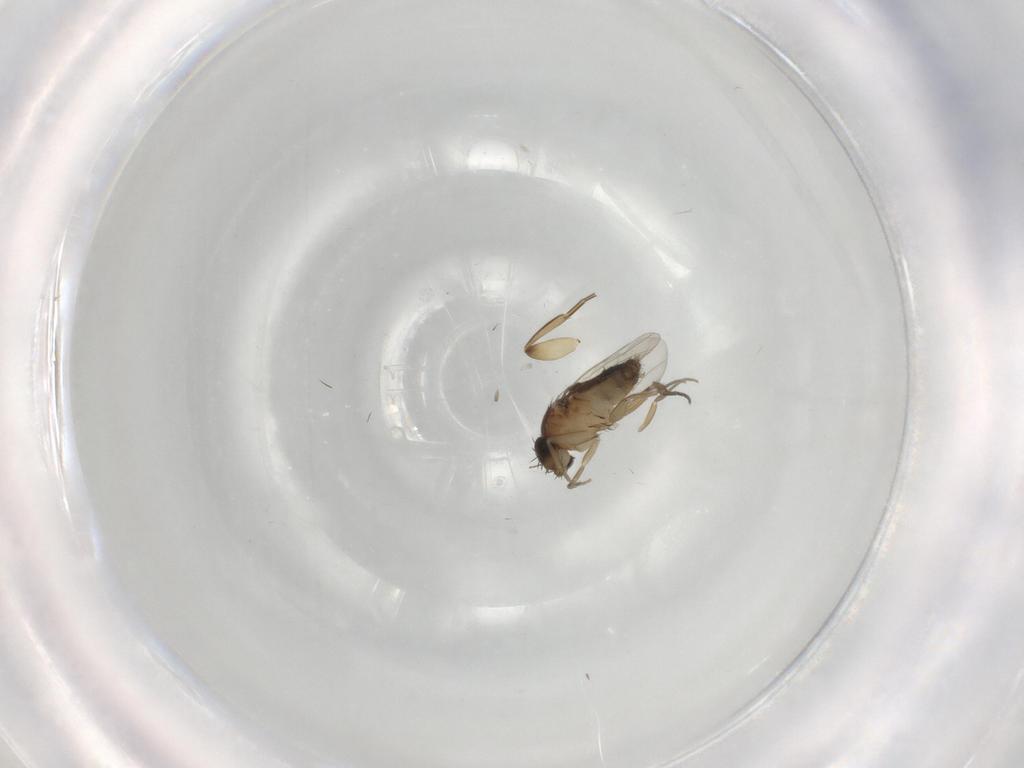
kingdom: Animalia
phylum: Arthropoda
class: Insecta
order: Diptera
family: Phoridae
